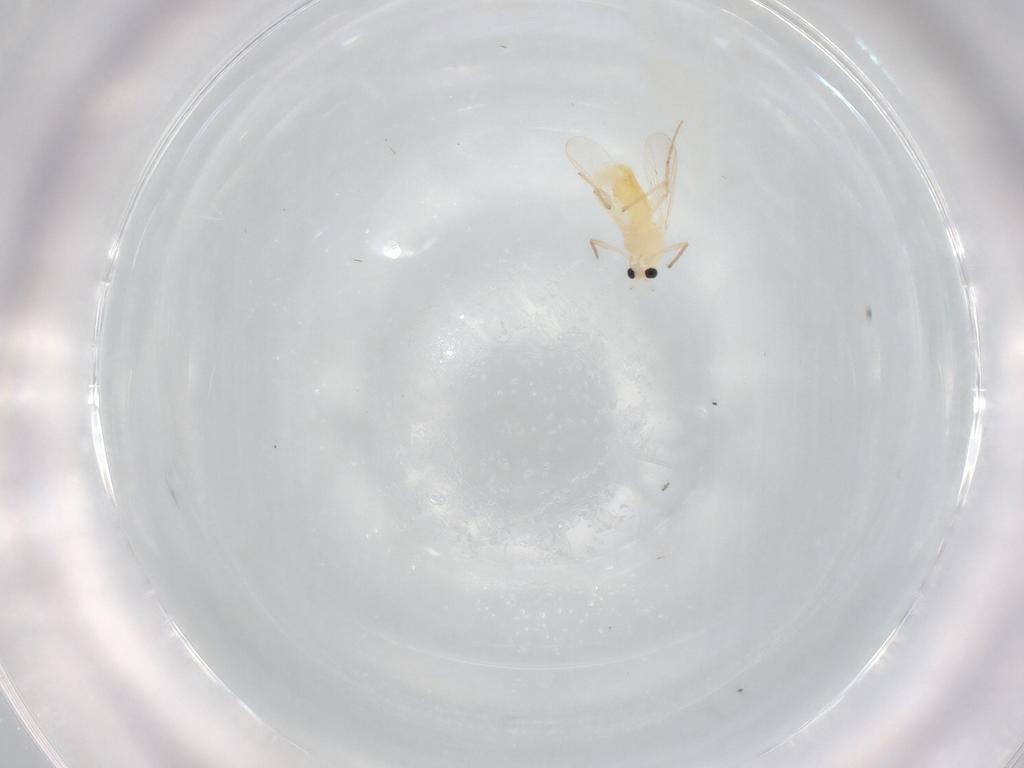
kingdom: Animalia
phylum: Arthropoda
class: Insecta
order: Diptera
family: Chironomidae
